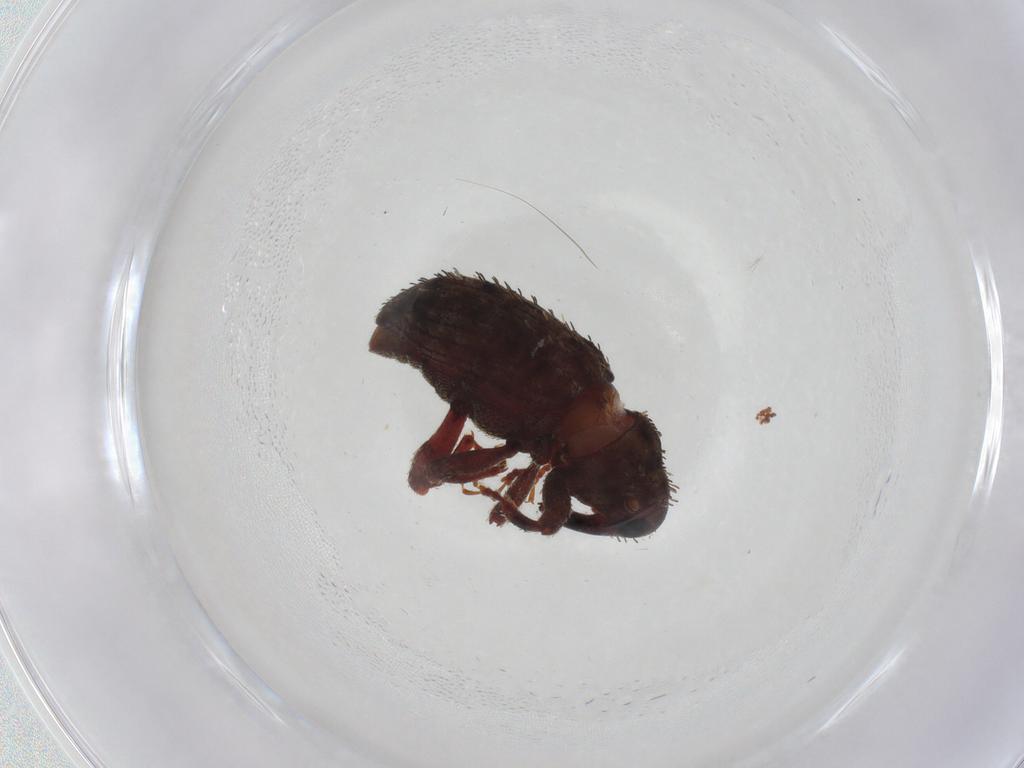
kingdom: Animalia
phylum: Arthropoda
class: Insecta
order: Coleoptera
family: Curculionidae
